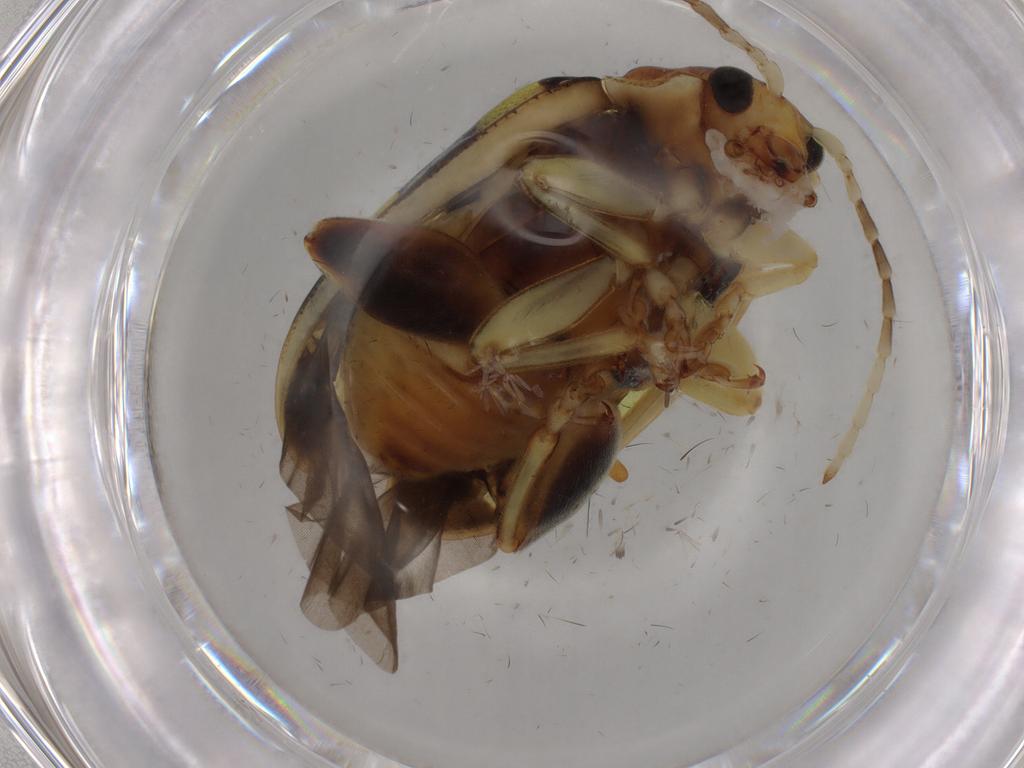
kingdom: Animalia
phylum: Arthropoda
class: Insecta
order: Coleoptera
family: Chrysomelidae
